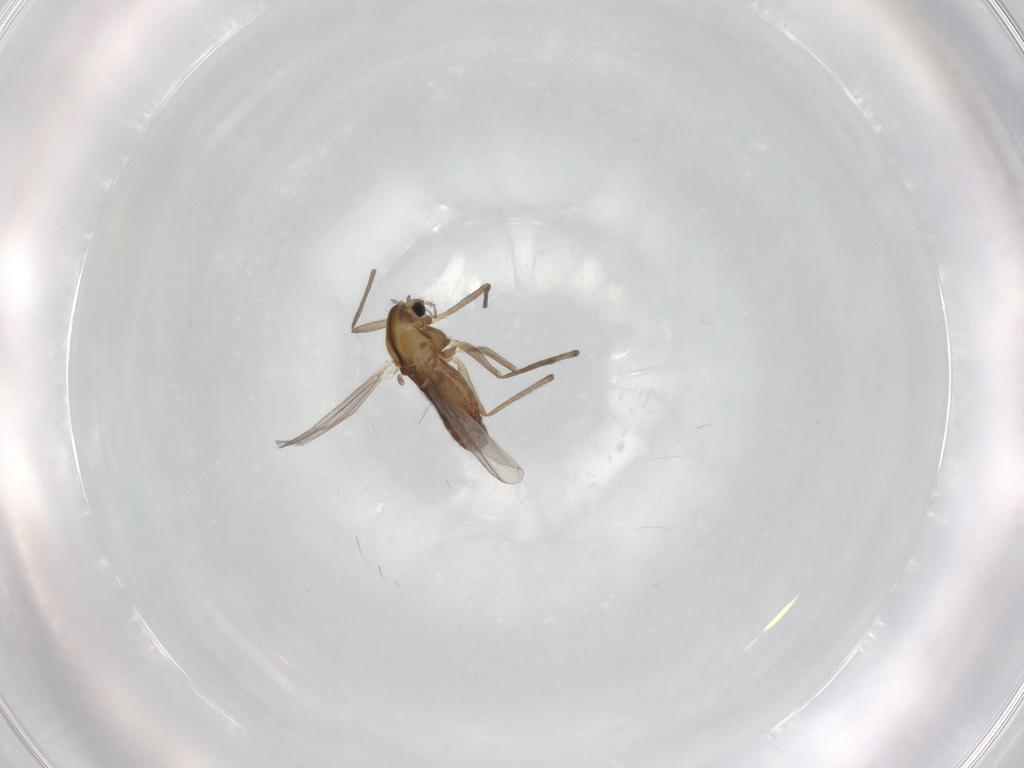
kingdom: Animalia
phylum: Arthropoda
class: Insecta
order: Diptera
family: Chironomidae
